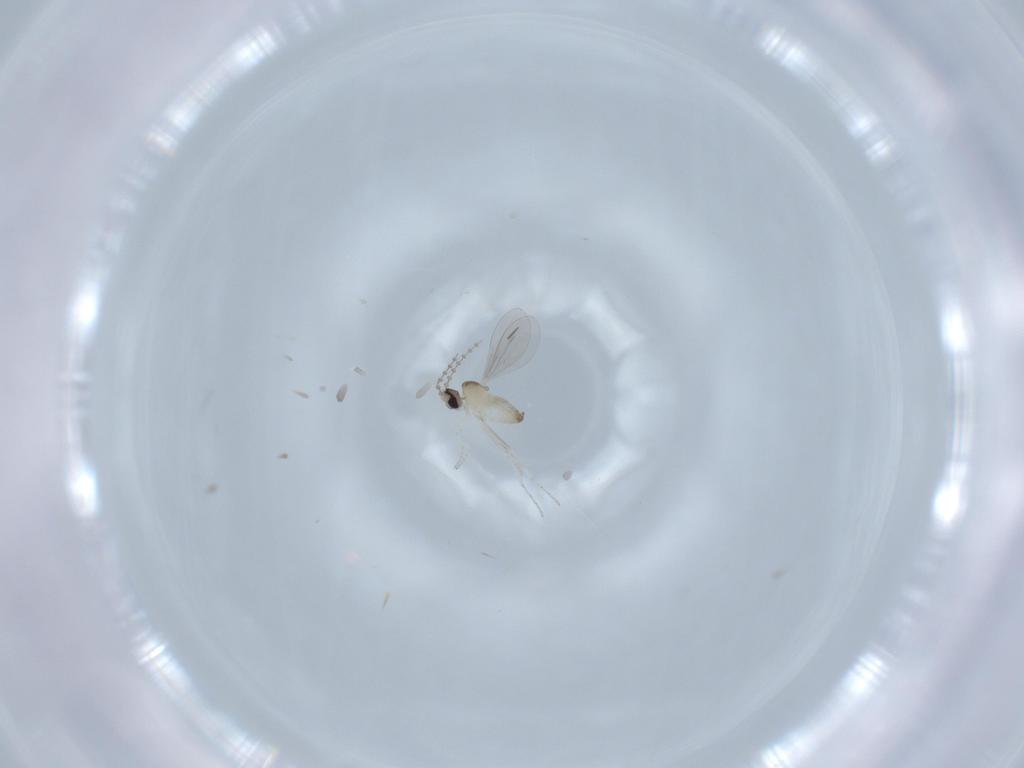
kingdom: Animalia
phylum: Arthropoda
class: Insecta
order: Diptera
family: Cecidomyiidae
